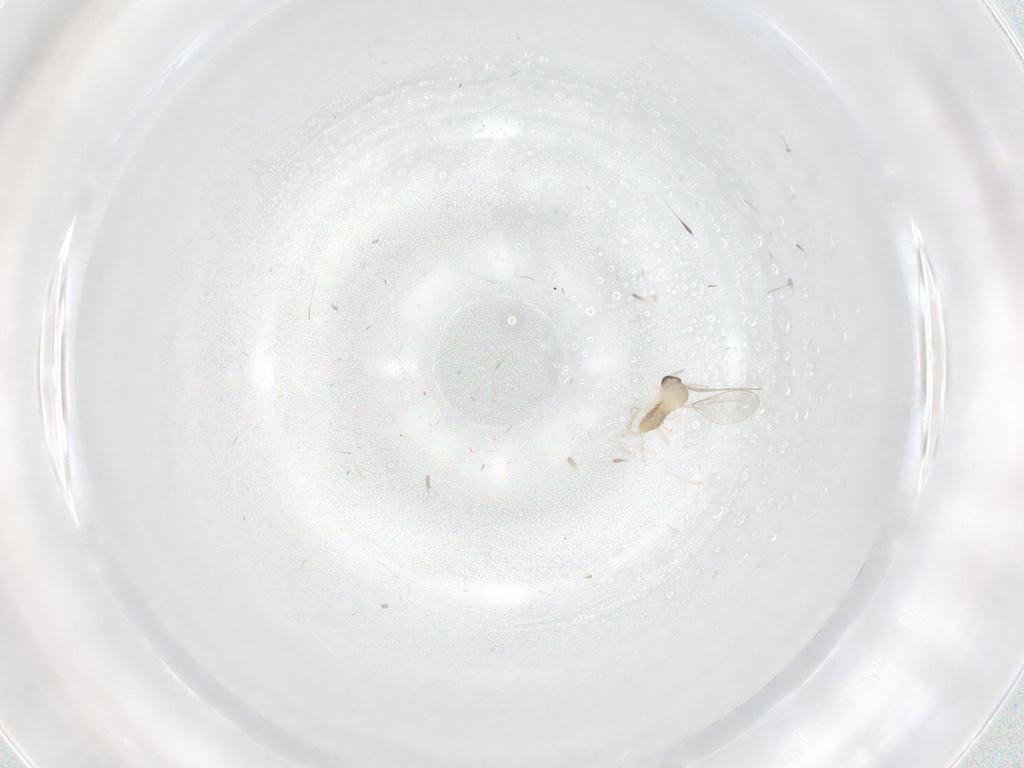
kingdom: Animalia
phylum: Arthropoda
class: Insecta
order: Diptera
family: Cecidomyiidae
